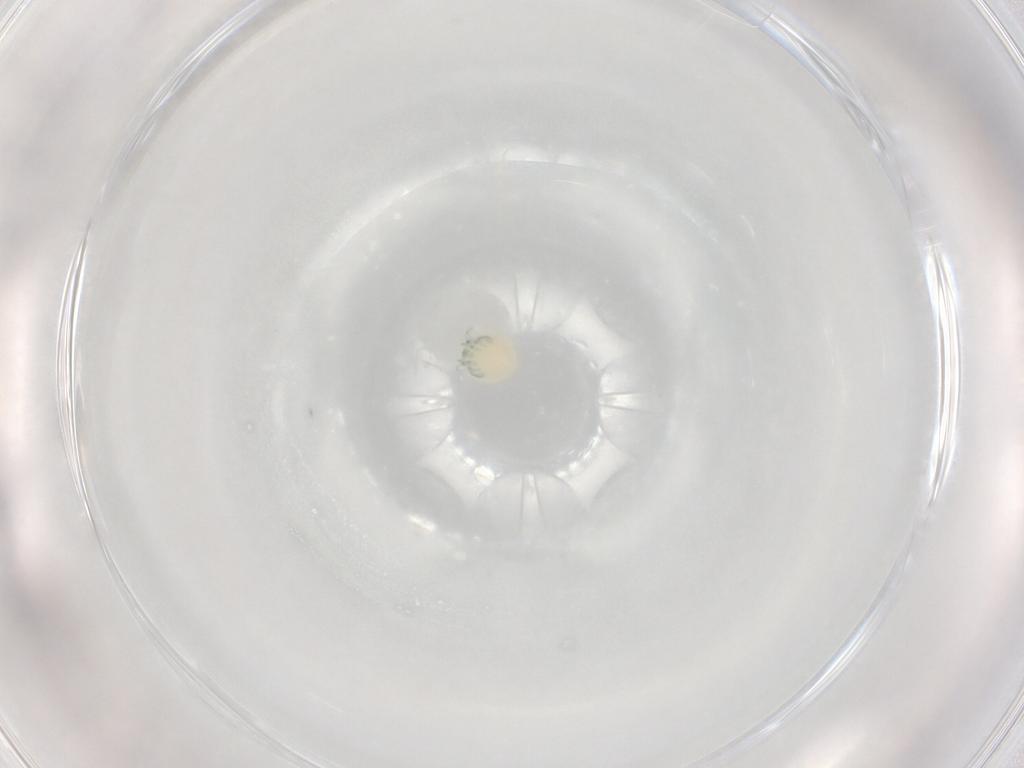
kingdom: Animalia
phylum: Arthropoda
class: Arachnida
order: Trombidiformes
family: Arrenuridae
